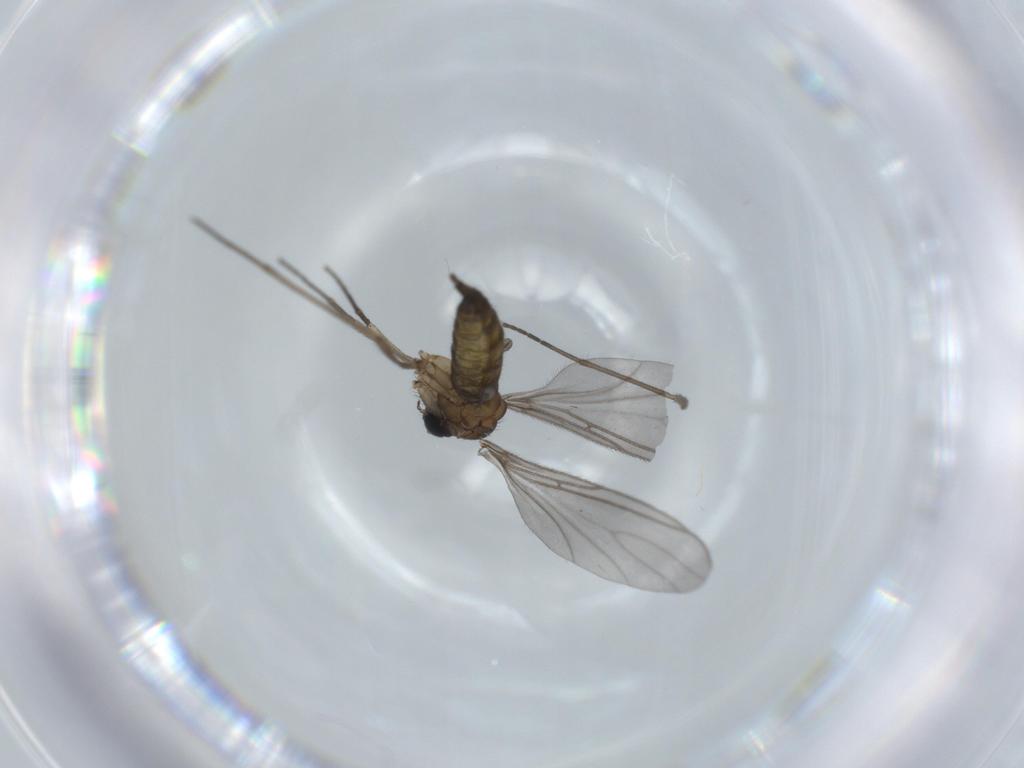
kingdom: Animalia
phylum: Arthropoda
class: Insecta
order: Diptera
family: Sciaridae
